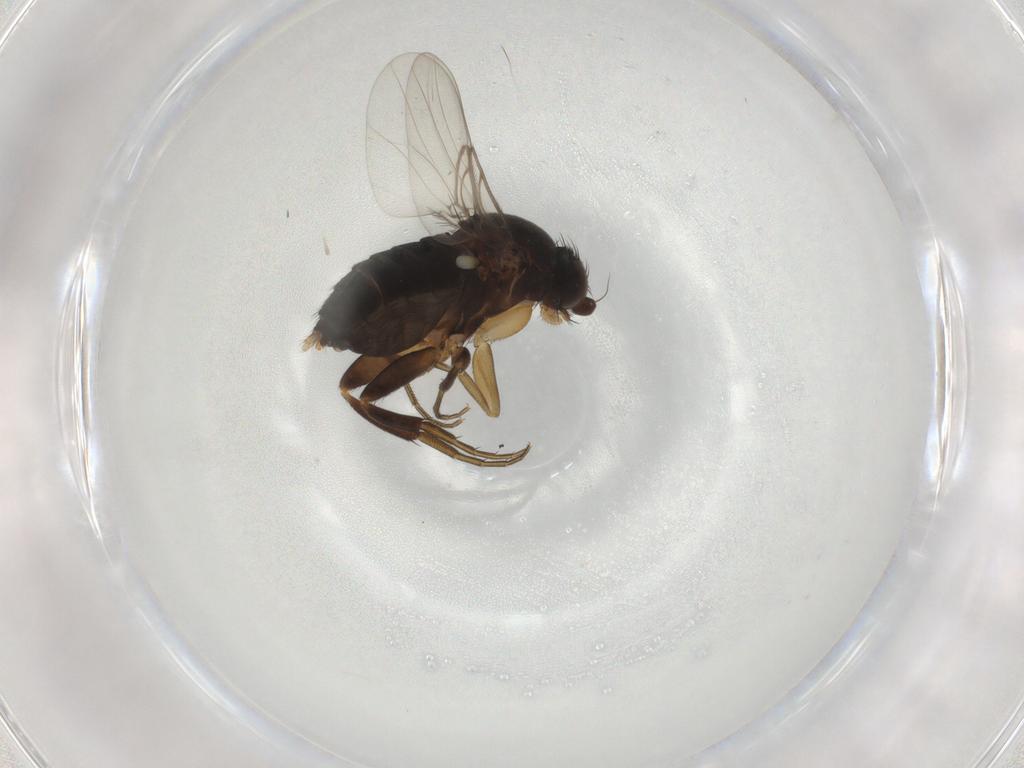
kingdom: Animalia
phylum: Arthropoda
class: Insecta
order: Diptera
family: Phoridae
